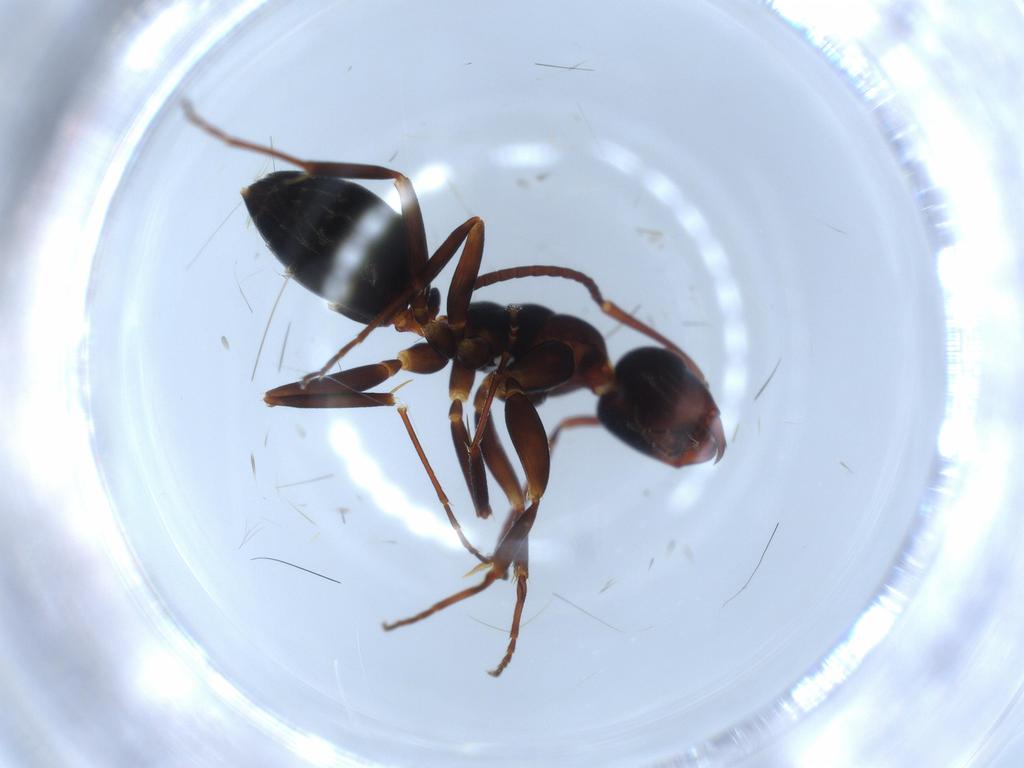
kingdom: Animalia
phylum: Arthropoda
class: Insecta
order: Hymenoptera
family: Formicidae
